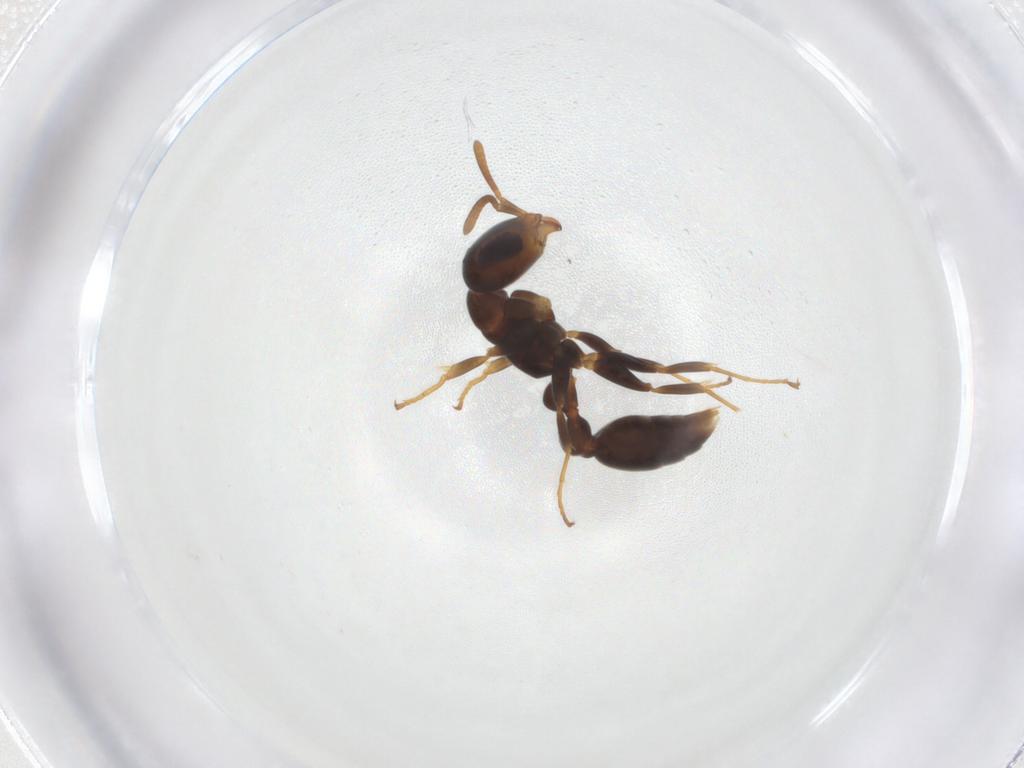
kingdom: Animalia
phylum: Arthropoda
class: Insecta
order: Hymenoptera
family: Formicidae
